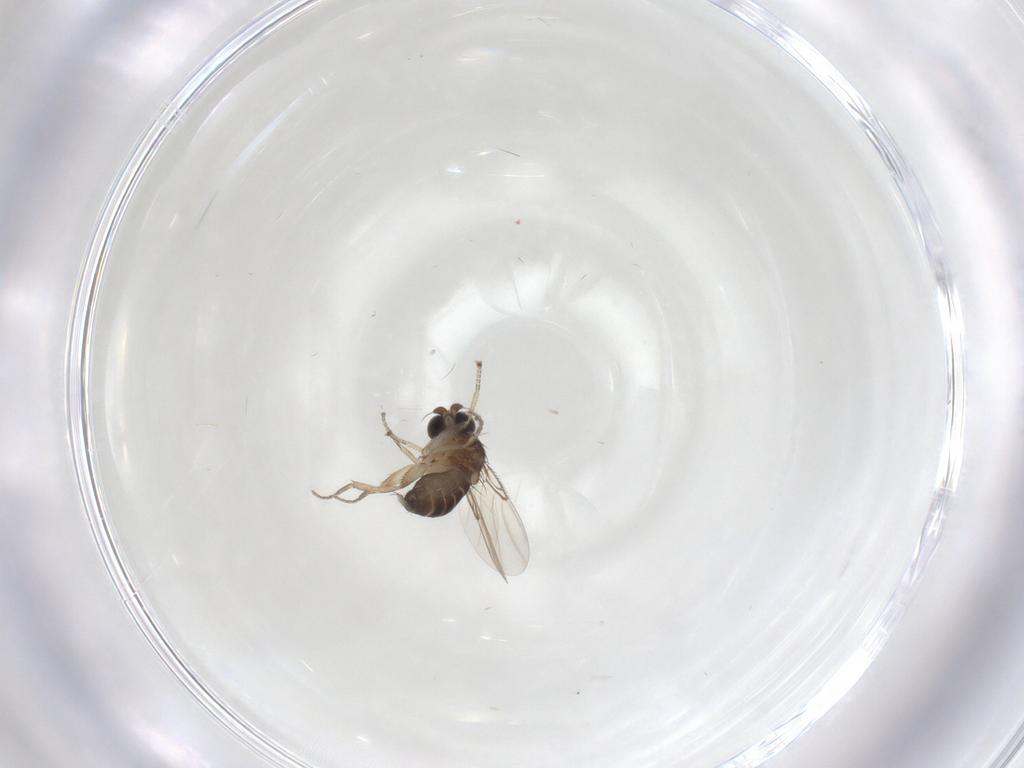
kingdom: Animalia
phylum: Arthropoda
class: Insecta
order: Diptera
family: Phoridae
